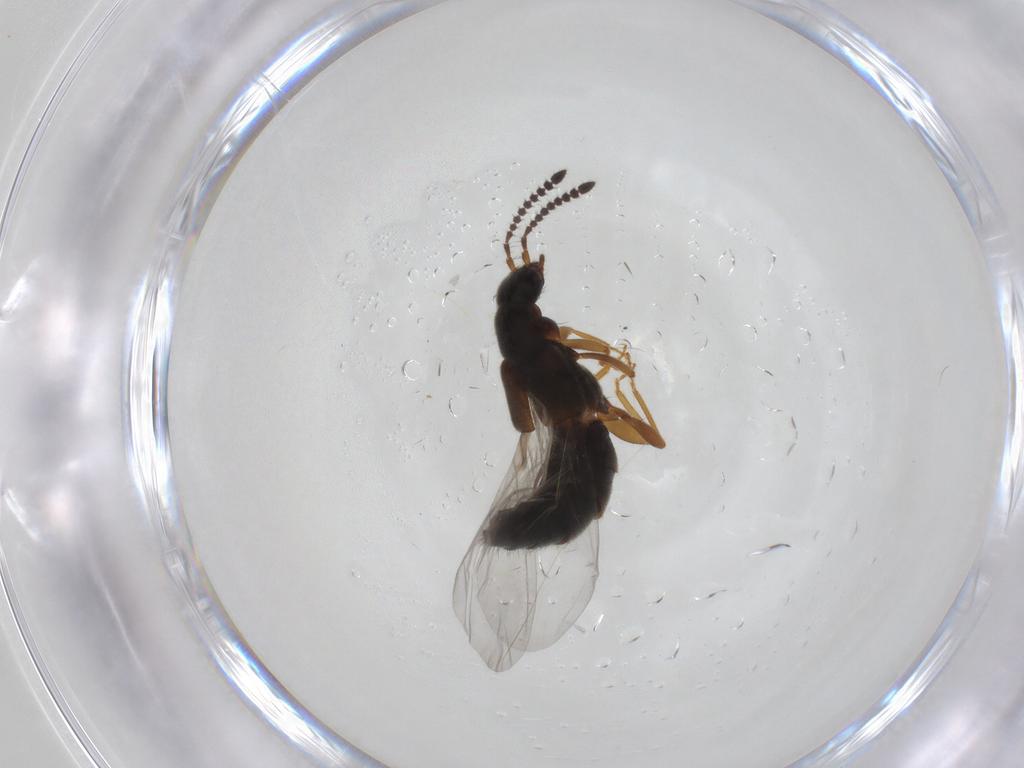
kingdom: Animalia
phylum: Arthropoda
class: Insecta
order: Coleoptera
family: Staphylinidae
